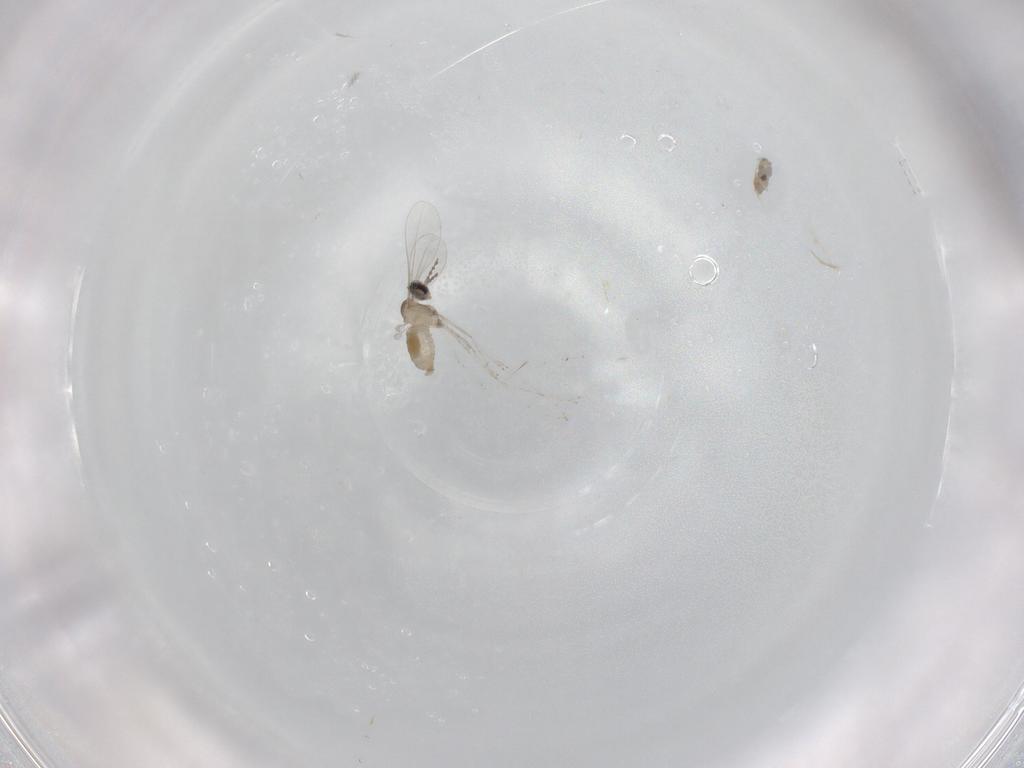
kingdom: Animalia
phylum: Arthropoda
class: Insecta
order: Diptera
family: Cecidomyiidae
